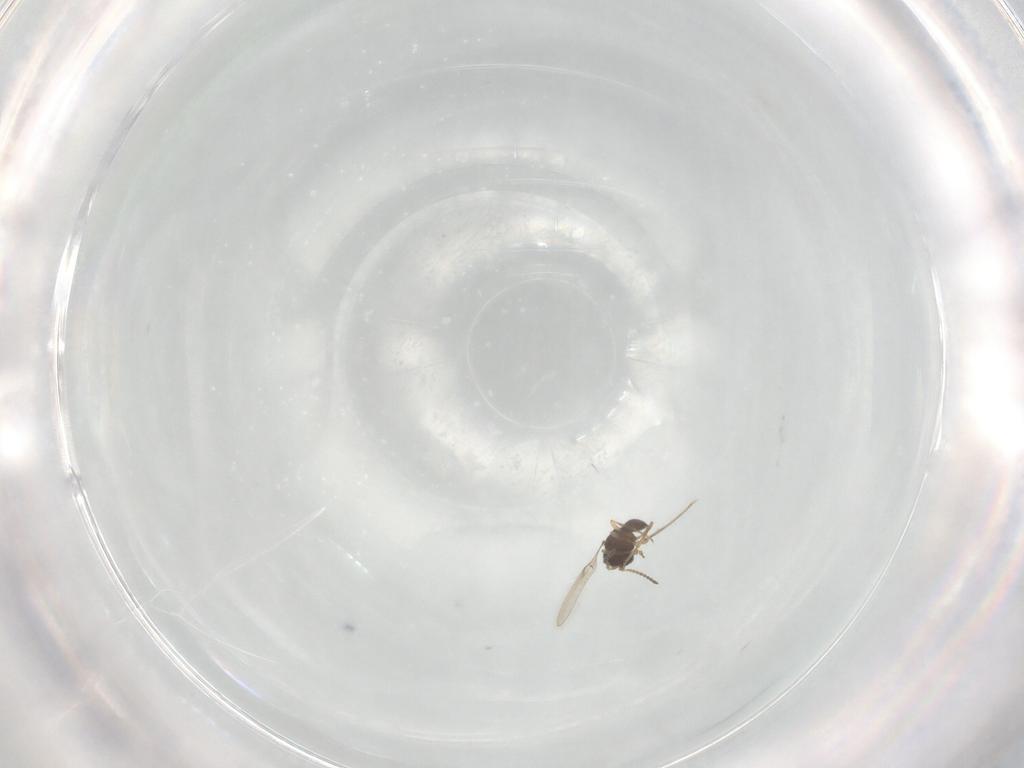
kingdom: Animalia
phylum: Arthropoda
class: Insecta
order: Hymenoptera
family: Ichneumonidae
